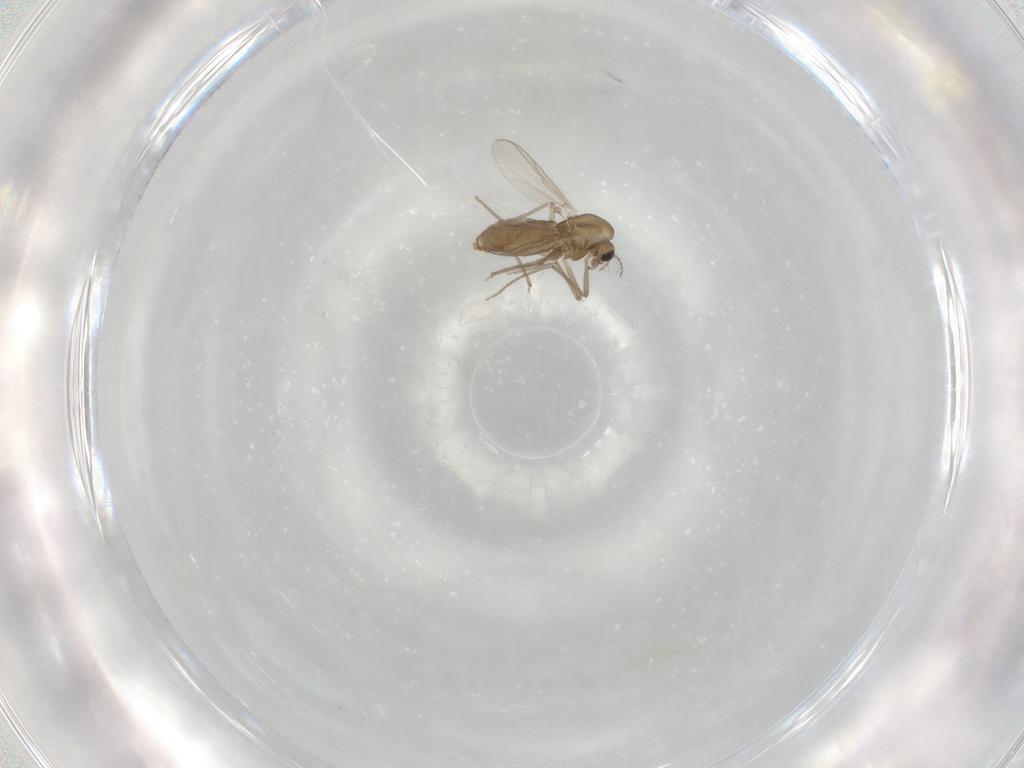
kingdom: Animalia
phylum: Arthropoda
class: Insecta
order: Diptera
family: Chironomidae
